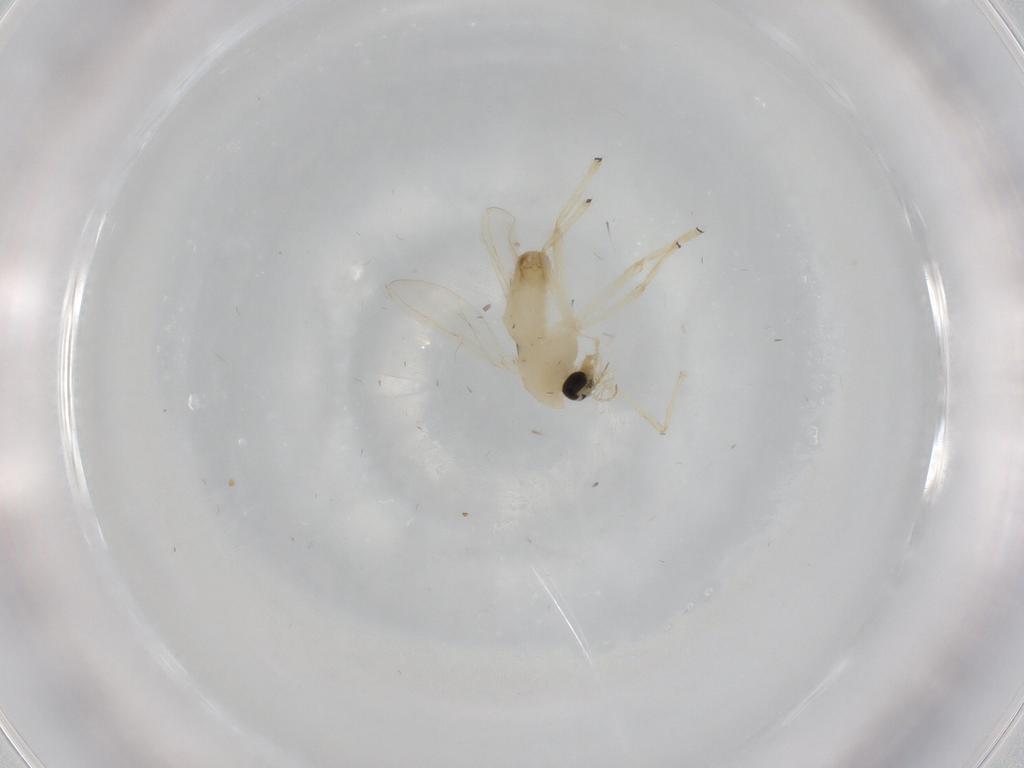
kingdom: Animalia
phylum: Arthropoda
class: Insecta
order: Diptera
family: Chironomidae
